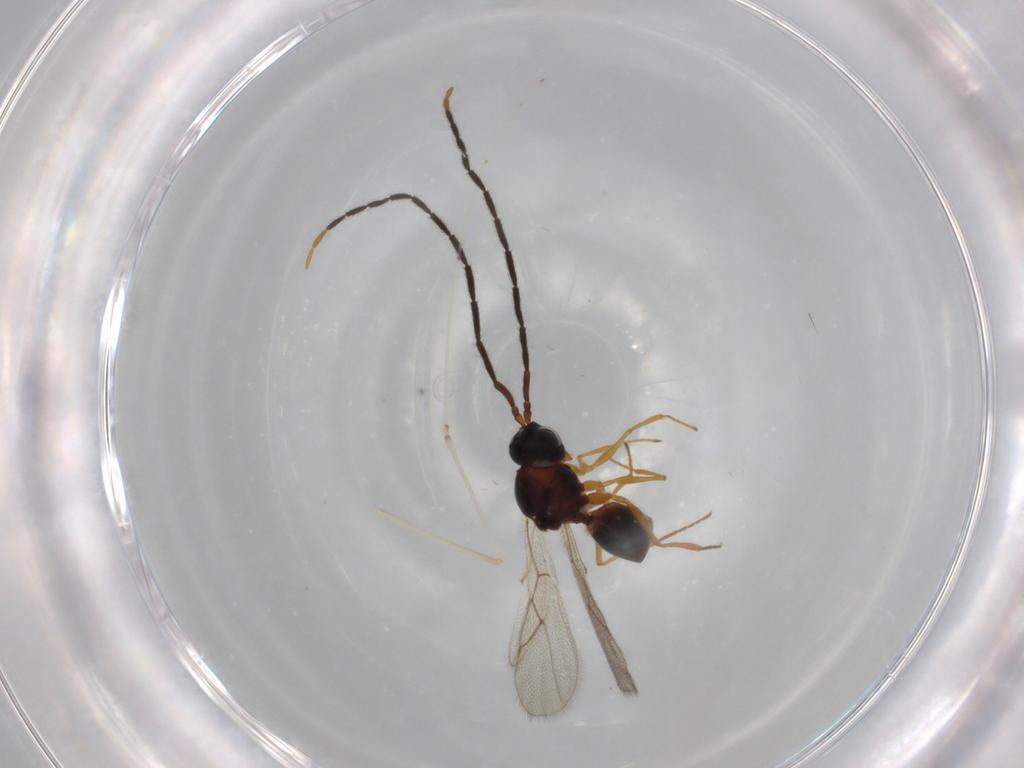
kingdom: Animalia
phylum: Arthropoda
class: Insecta
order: Hymenoptera
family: Figitidae
